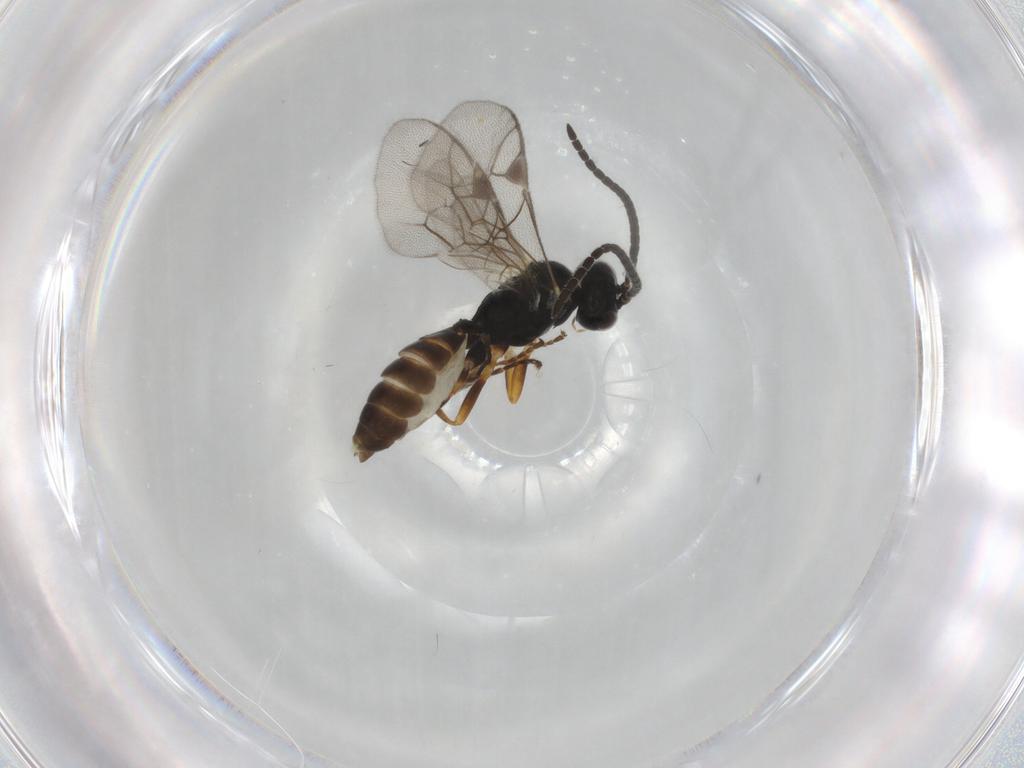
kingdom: Animalia
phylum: Arthropoda
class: Insecta
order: Hymenoptera
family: Ichneumonidae
